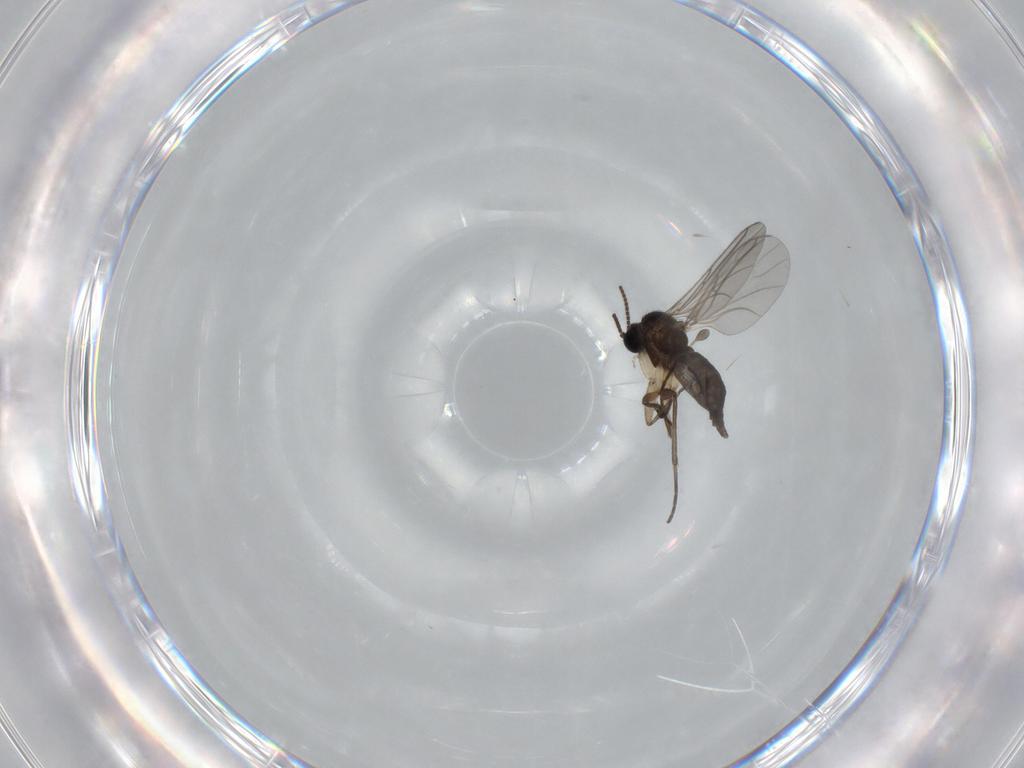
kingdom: Animalia
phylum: Arthropoda
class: Insecta
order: Diptera
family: Sciaridae
